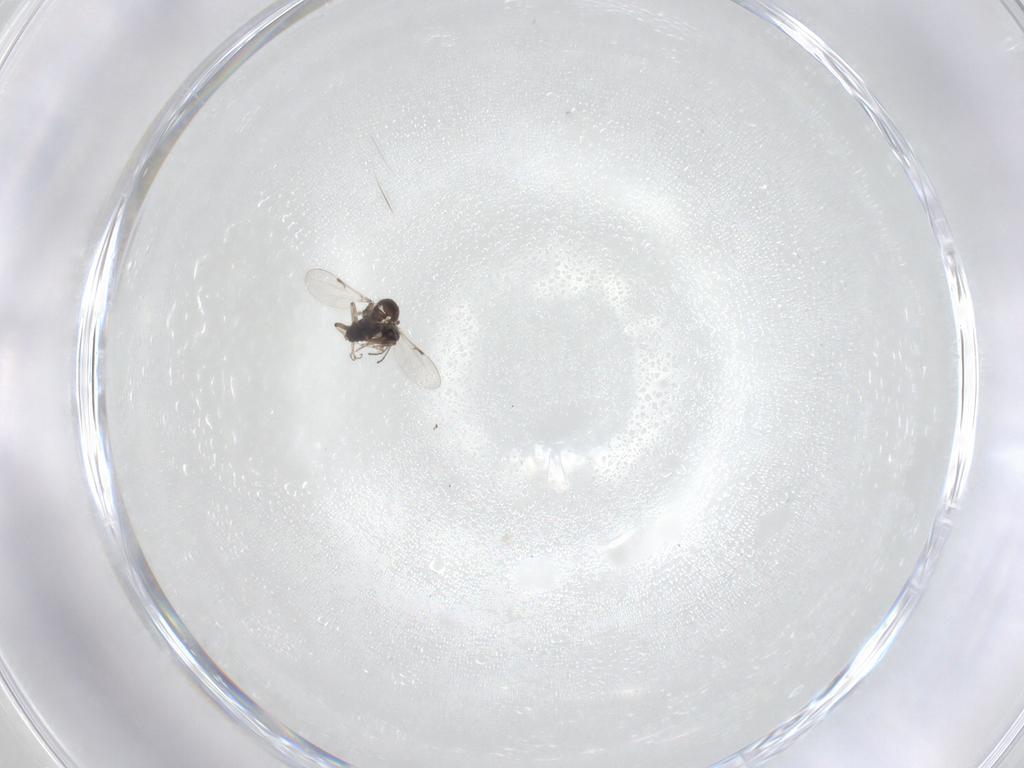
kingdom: Animalia
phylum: Arthropoda
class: Insecta
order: Diptera
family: Ceratopogonidae
